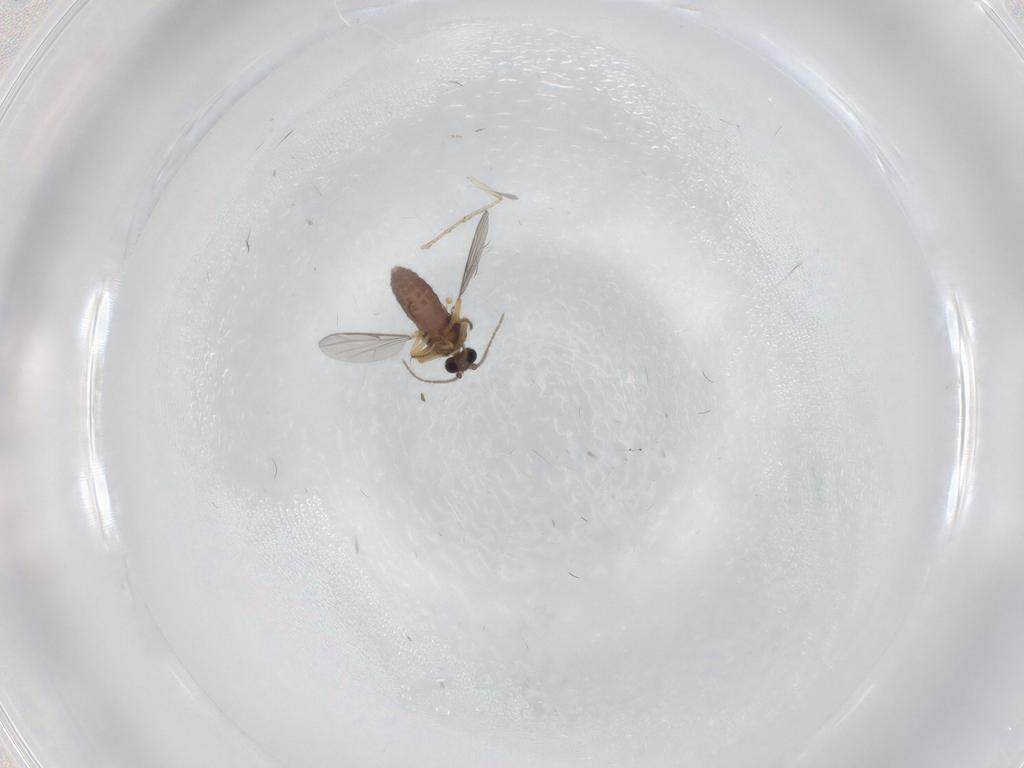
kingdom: Animalia
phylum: Arthropoda
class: Insecta
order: Diptera
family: Ceratopogonidae
